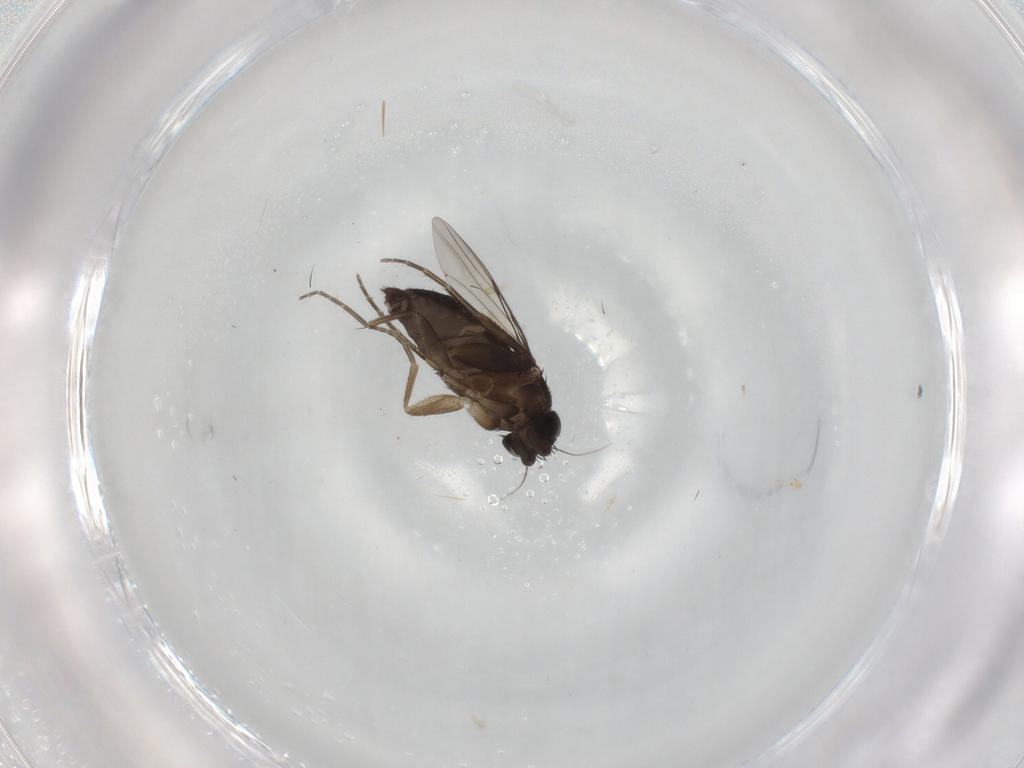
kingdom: Animalia
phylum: Arthropoda
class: Insecta
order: Diptera
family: Phoridae
